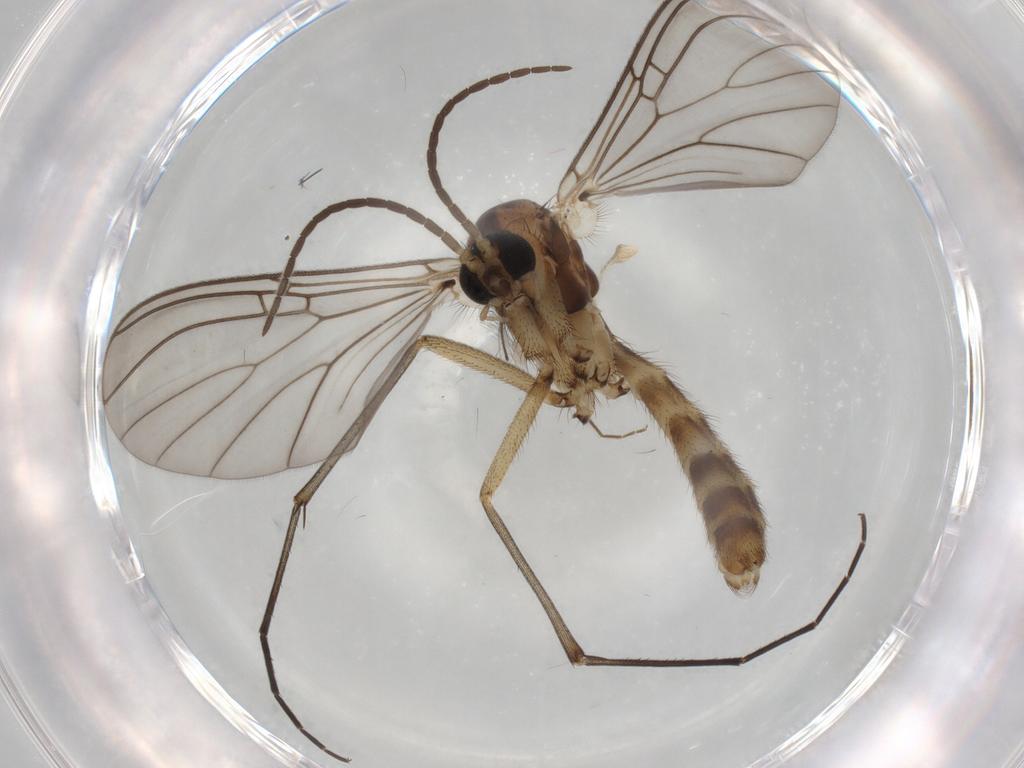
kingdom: Animalia
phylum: Arthropoda
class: Insecta
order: Diptera
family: Mycetophilidae
